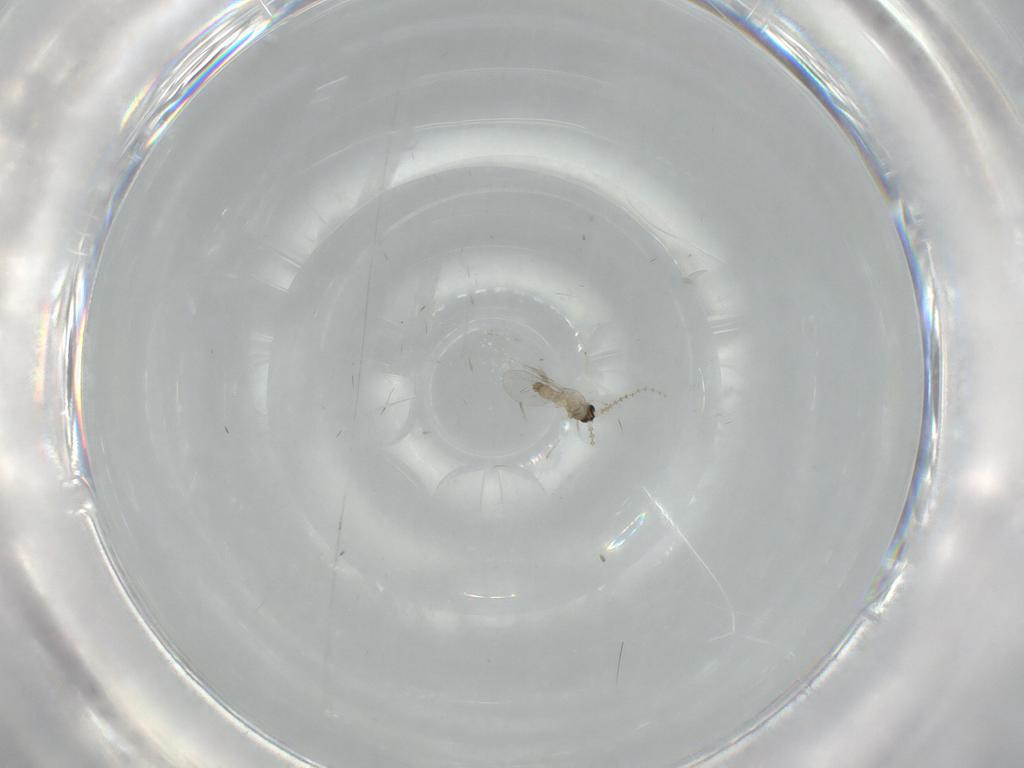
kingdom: Animalia
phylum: Arthropoda
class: Insecta
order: Diptera
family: Cecidomyiidae
